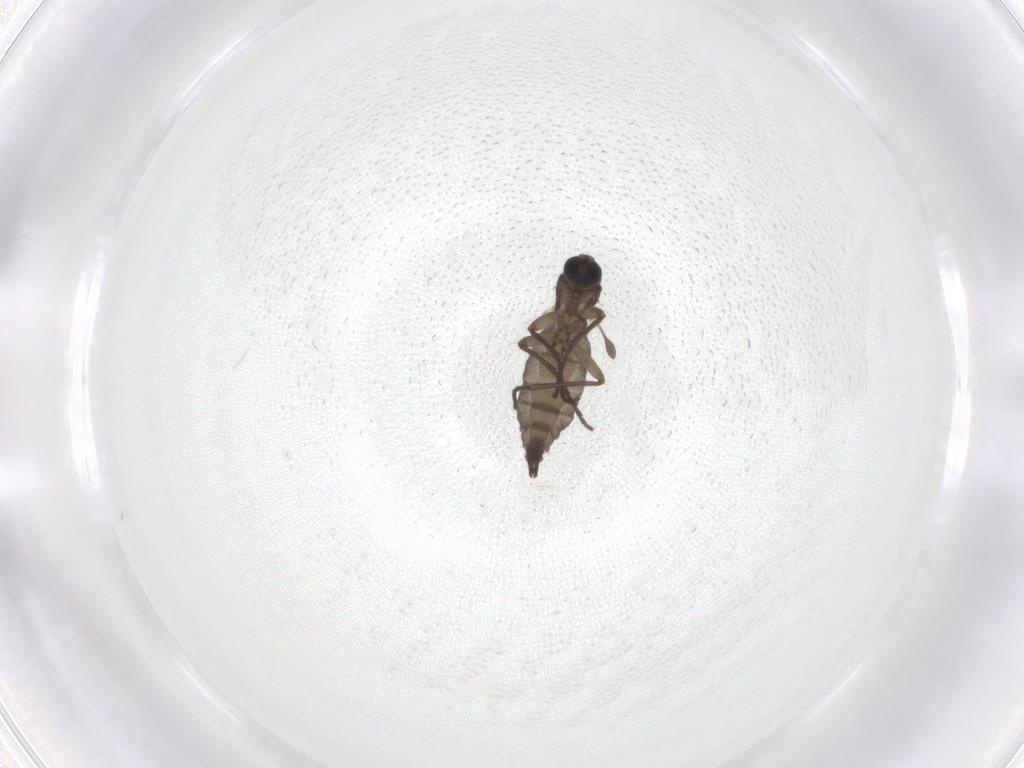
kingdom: Animalia
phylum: Arthropoda
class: Insecta
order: Diptera
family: Sciaridae
